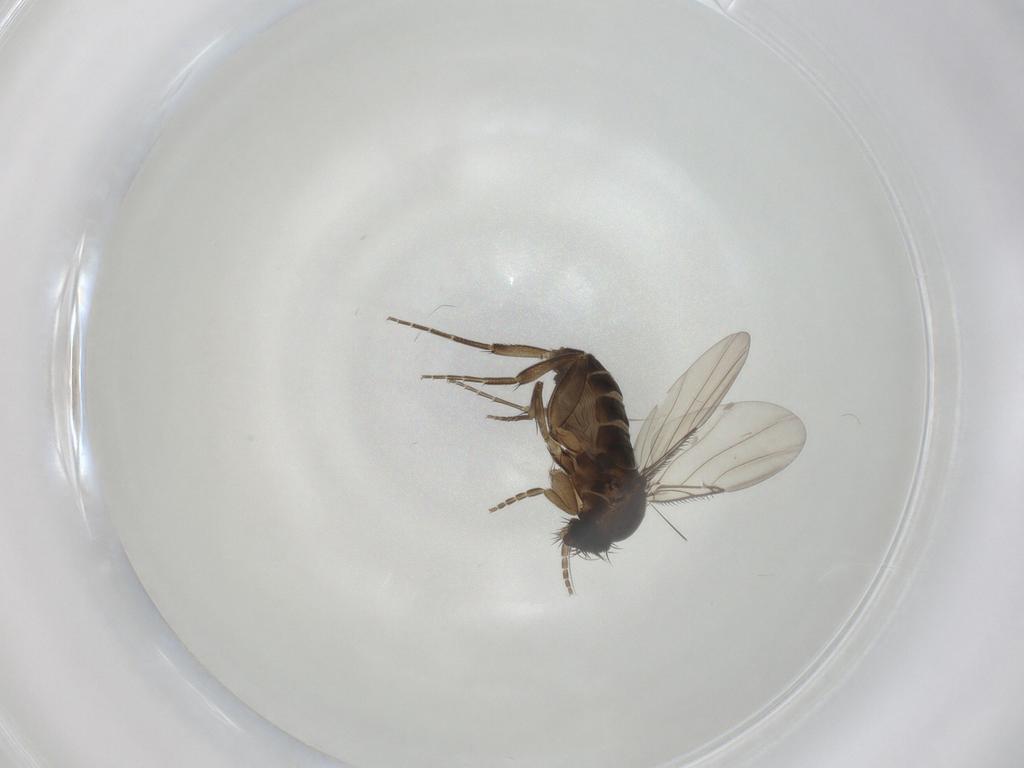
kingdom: Animalia
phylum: Arthropoda
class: Insecta
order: Diptera
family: Phoridae
